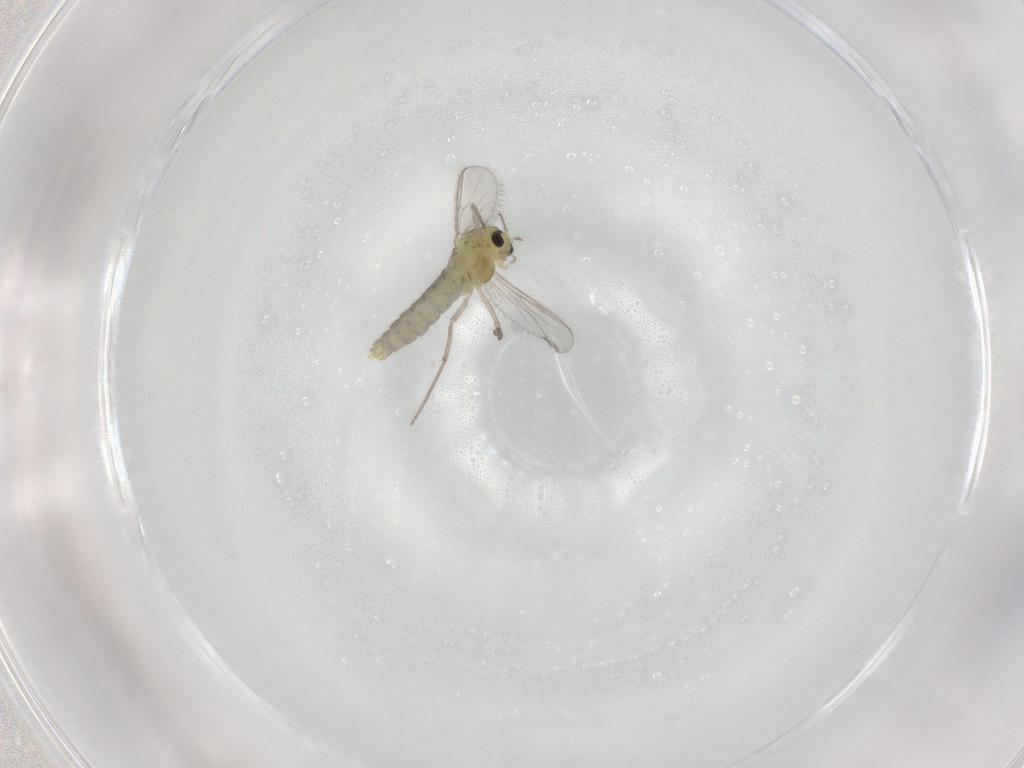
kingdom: Animalia
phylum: Arthropoda
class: Insecta
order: Diptera
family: Chironomidae
